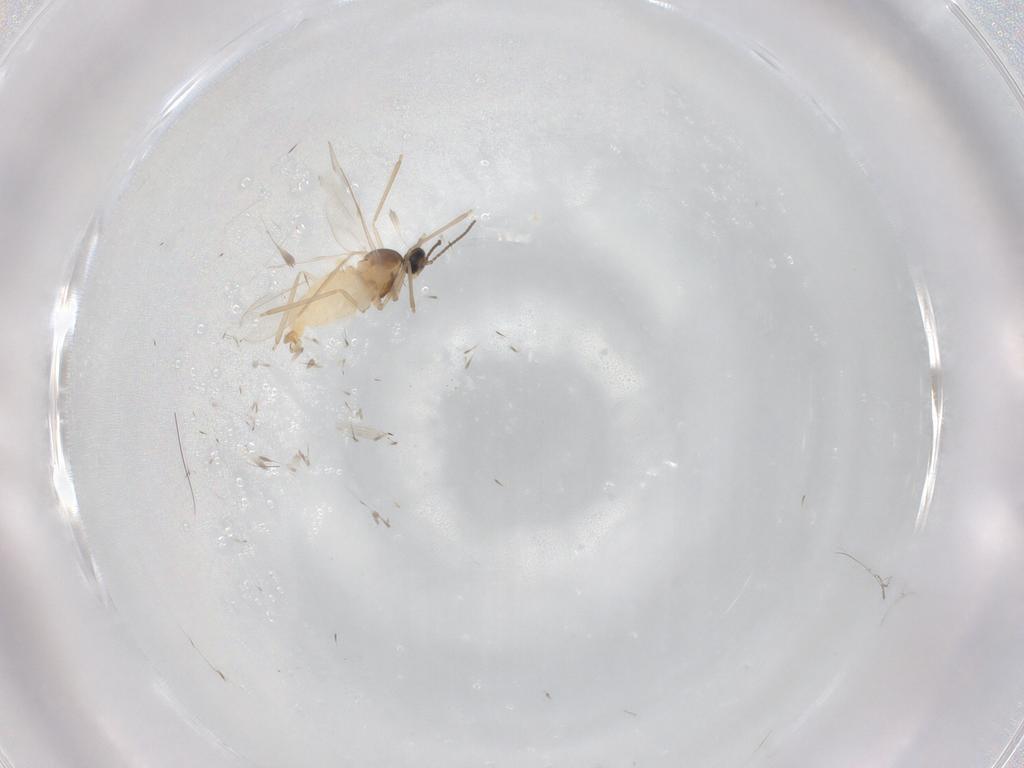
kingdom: Animalia
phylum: Arthropoda
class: Insecta
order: Diptera
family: Cecidomyiidae
